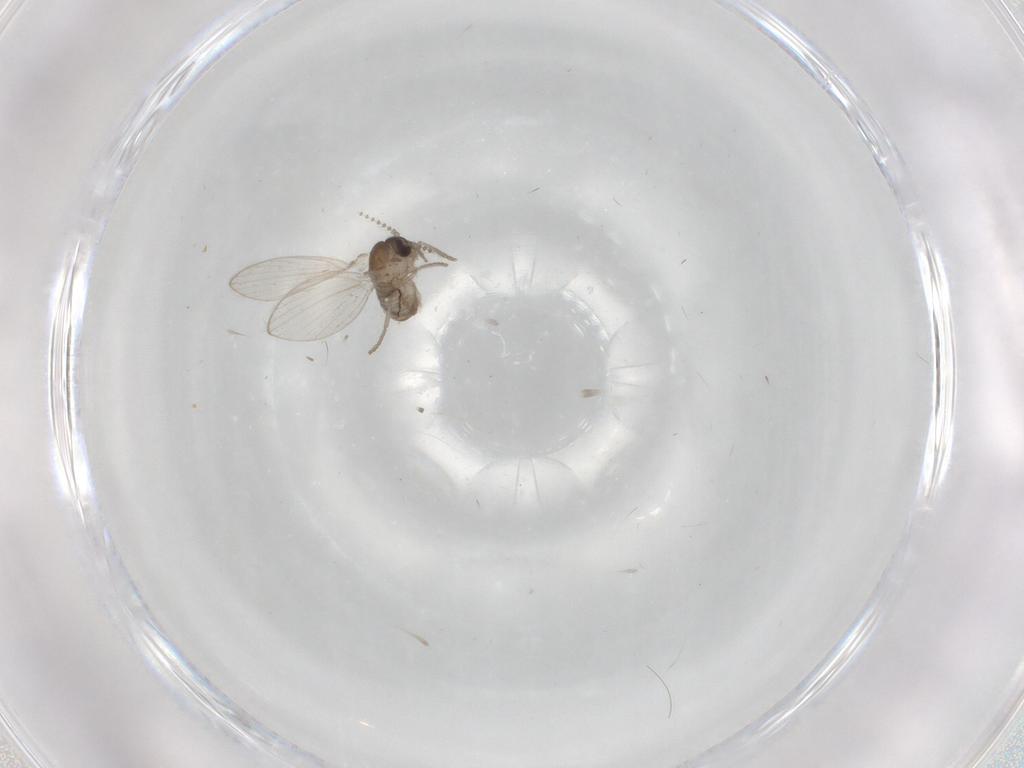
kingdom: Animalia
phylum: Arthropoda
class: Insecta
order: Diptera
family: Psychodidae
